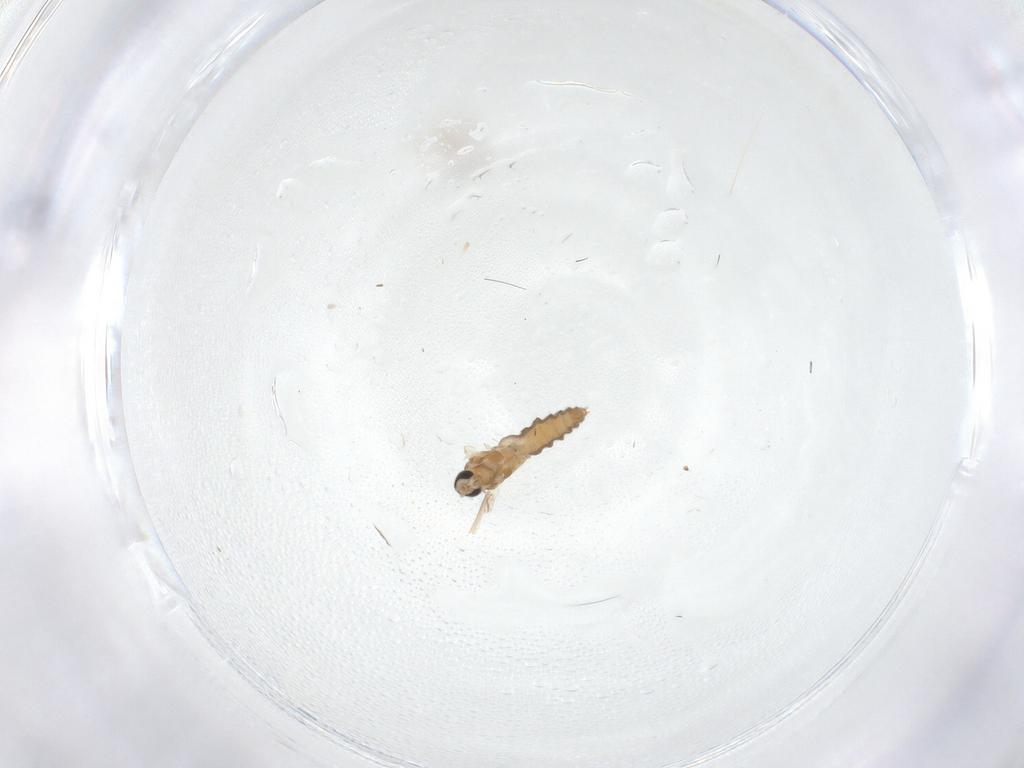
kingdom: Animalia
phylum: Arthropoda
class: Insecta
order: Diptera
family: Cecidomyiidae
